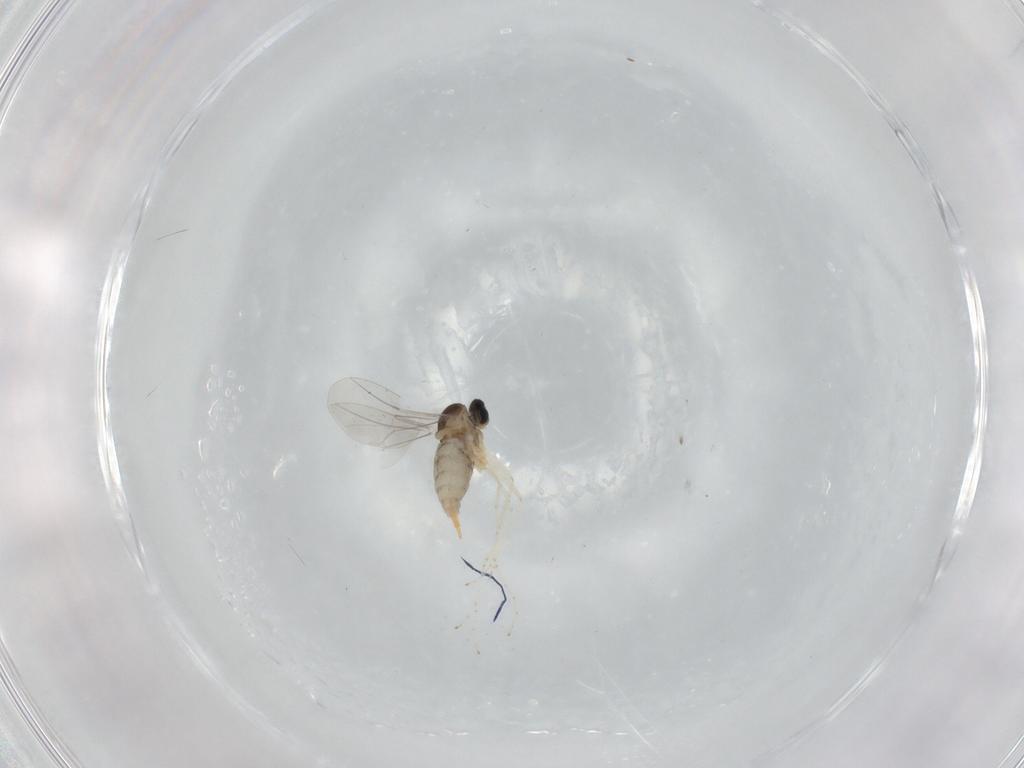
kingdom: Animalia
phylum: Arthropoda
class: Insecta
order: Diptera
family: Cecidomyiidae
